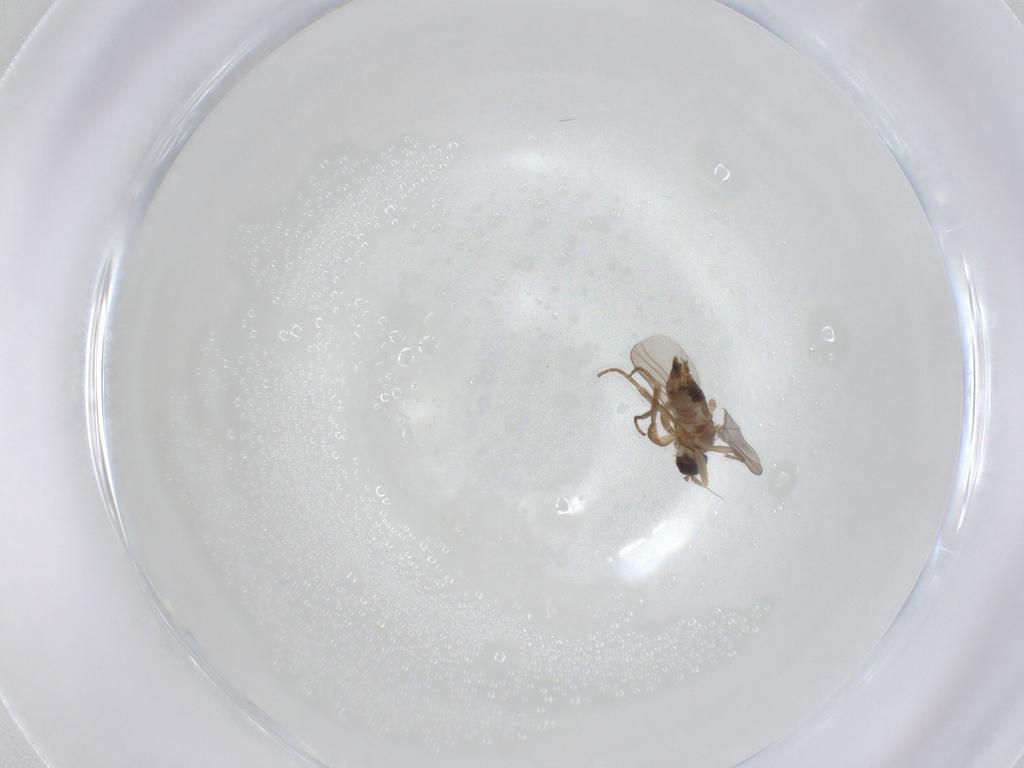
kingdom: Animalia
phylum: Arthropoda
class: Insecta
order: Diptera
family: Hybotidae
